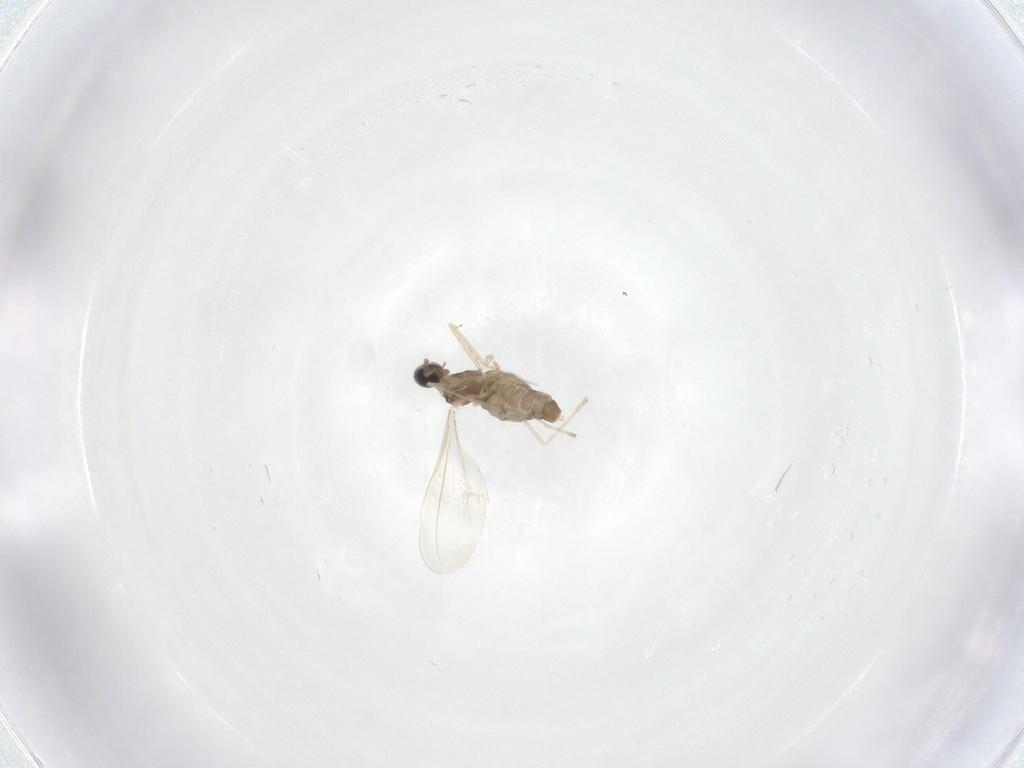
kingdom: Animalia
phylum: Arthropoda
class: Insecta
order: Diptera
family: Cecidomyiidae
